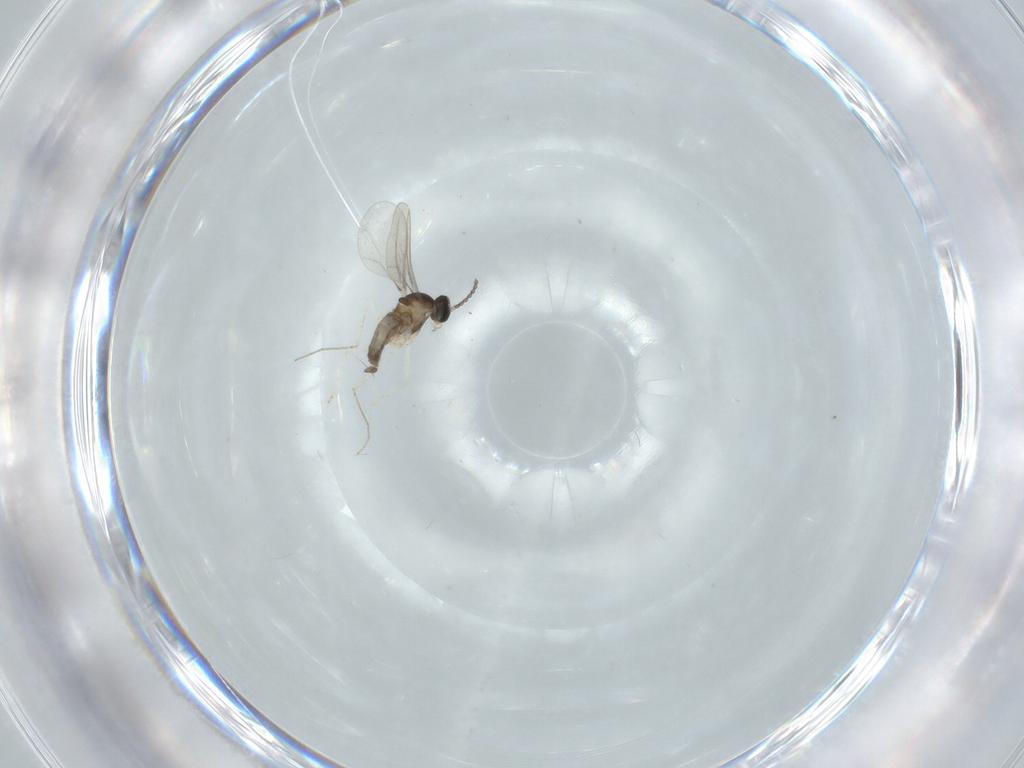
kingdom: Animalia
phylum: Arthropoda
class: Insecta
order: Diptera
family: Cecidomyiidae
